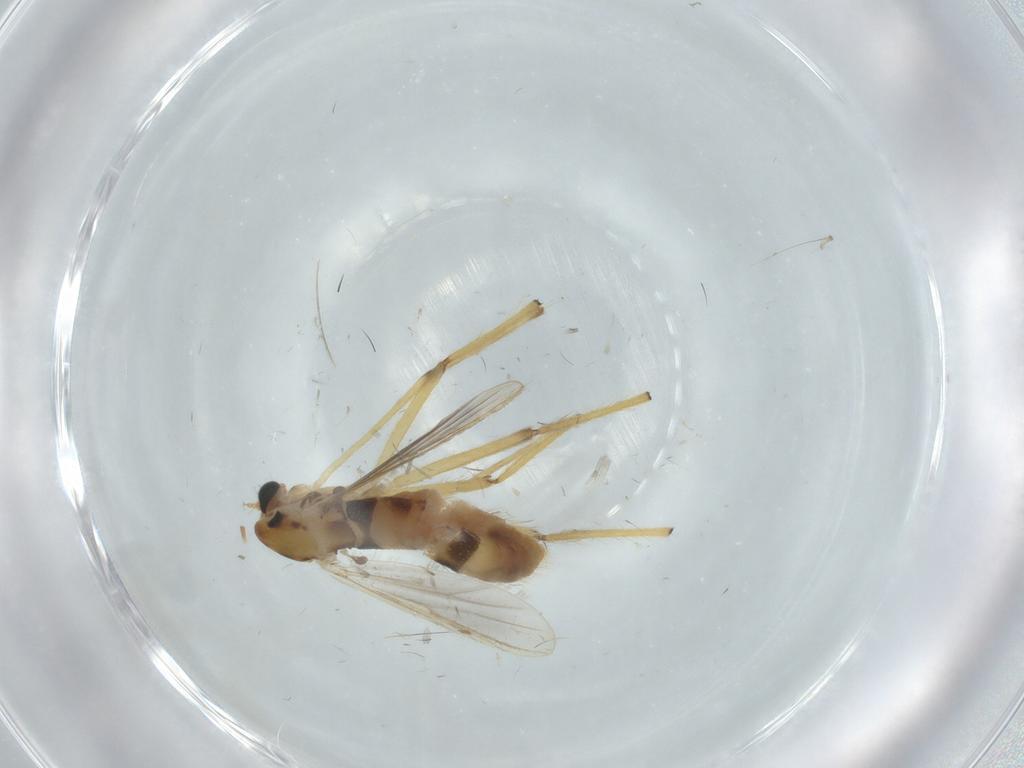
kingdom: Animalia
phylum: Arthropoda
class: Insecta
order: Diptera
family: Chironomidae
